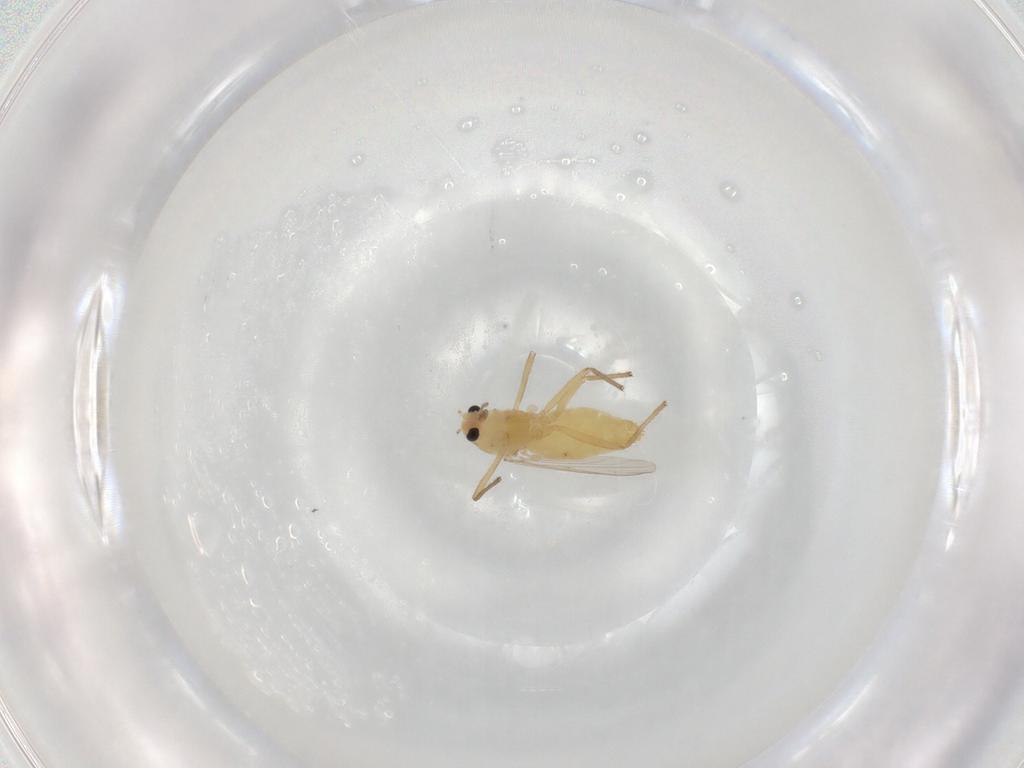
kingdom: Animalia
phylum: Arthropoda
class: Insecta
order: Diptera
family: Chironomidae
